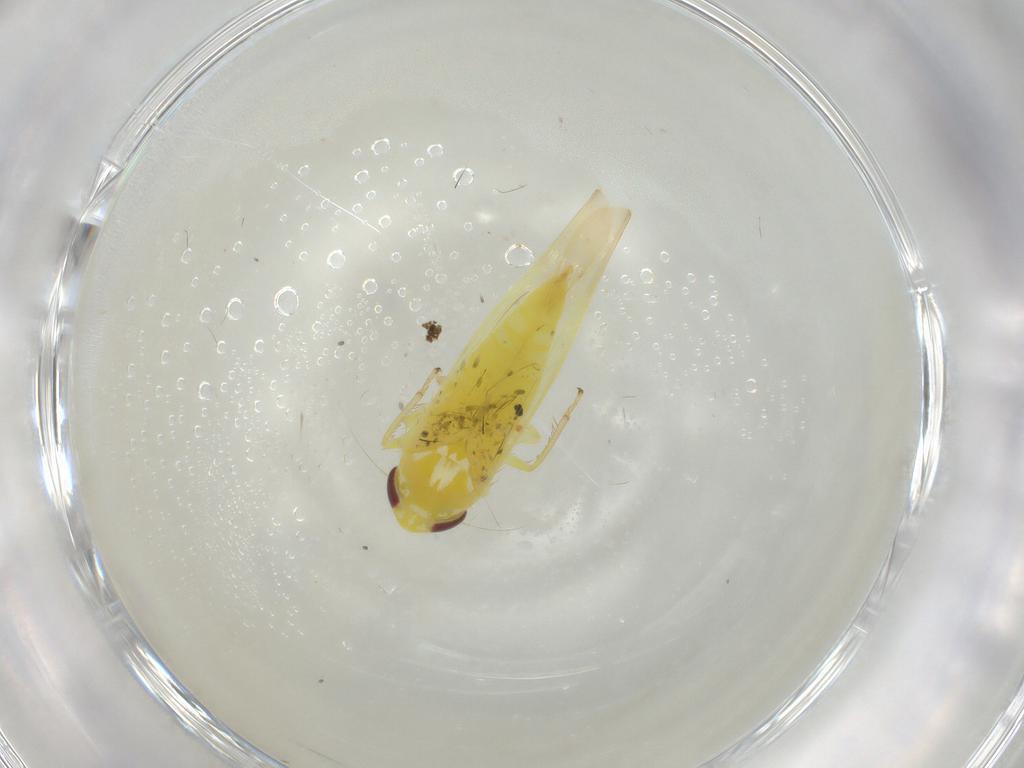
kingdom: Animalia
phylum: Arthropoda
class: Insecta
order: Hemiptera
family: Cicadellidae
